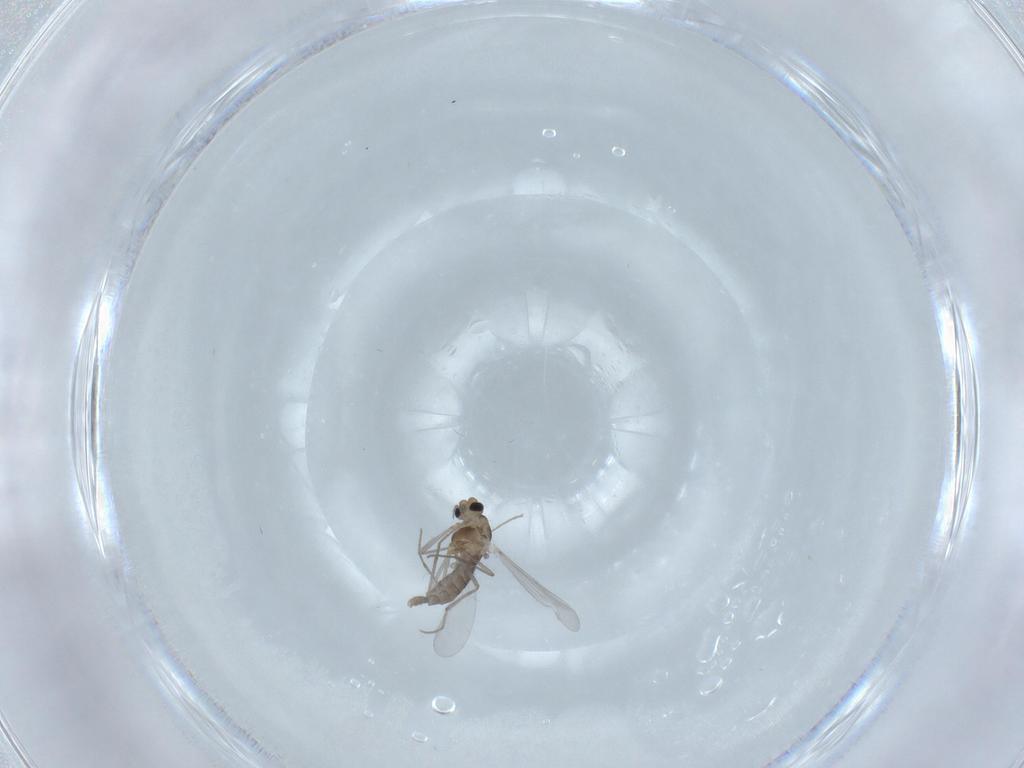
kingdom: Animalia
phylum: Arthropoda
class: Insecta
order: Diptera
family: Chironomidae
